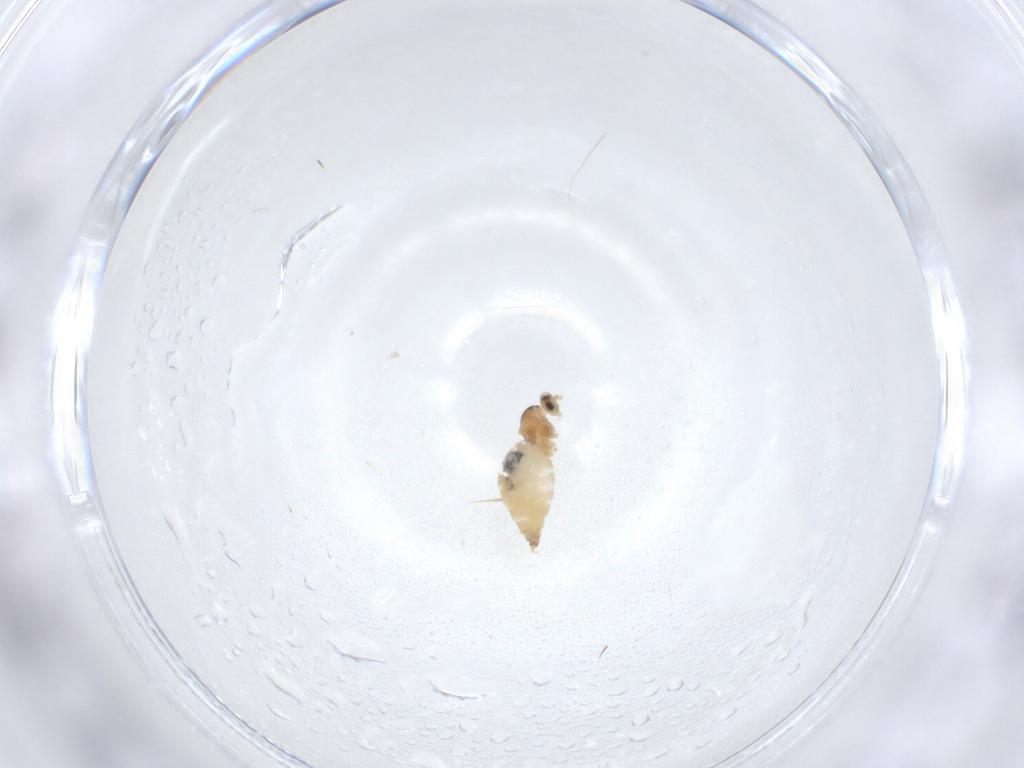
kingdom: Animalia
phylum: Arthropoda
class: Insecta
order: Diptera
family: Cecidomyiidae
